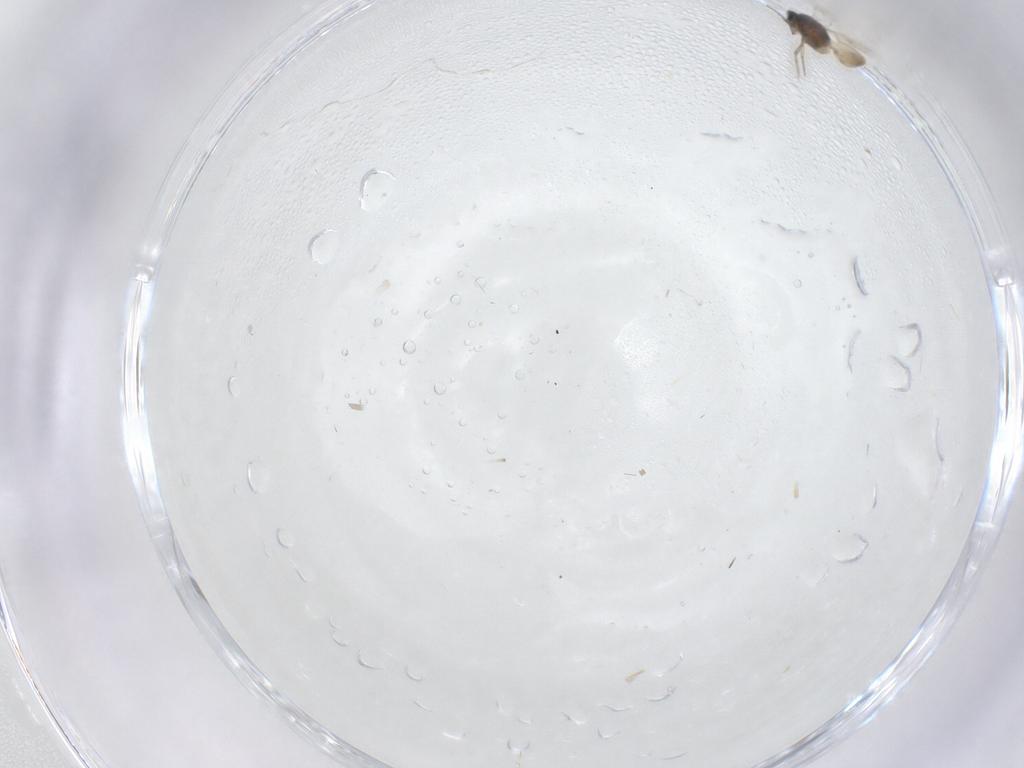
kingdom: Animalia
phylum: Arthropoda
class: Insecta
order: Hymenoptera
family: Scelionidae
